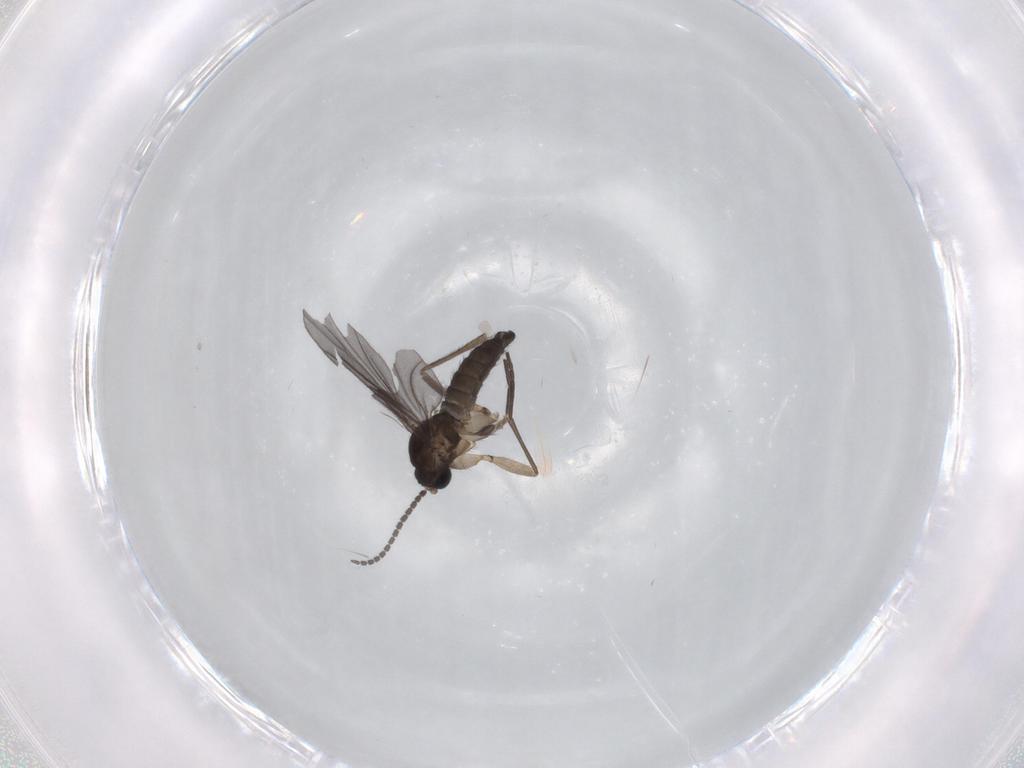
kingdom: Animalia
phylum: Arthropoda
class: Insecta
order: Diptera
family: Sciaridae
